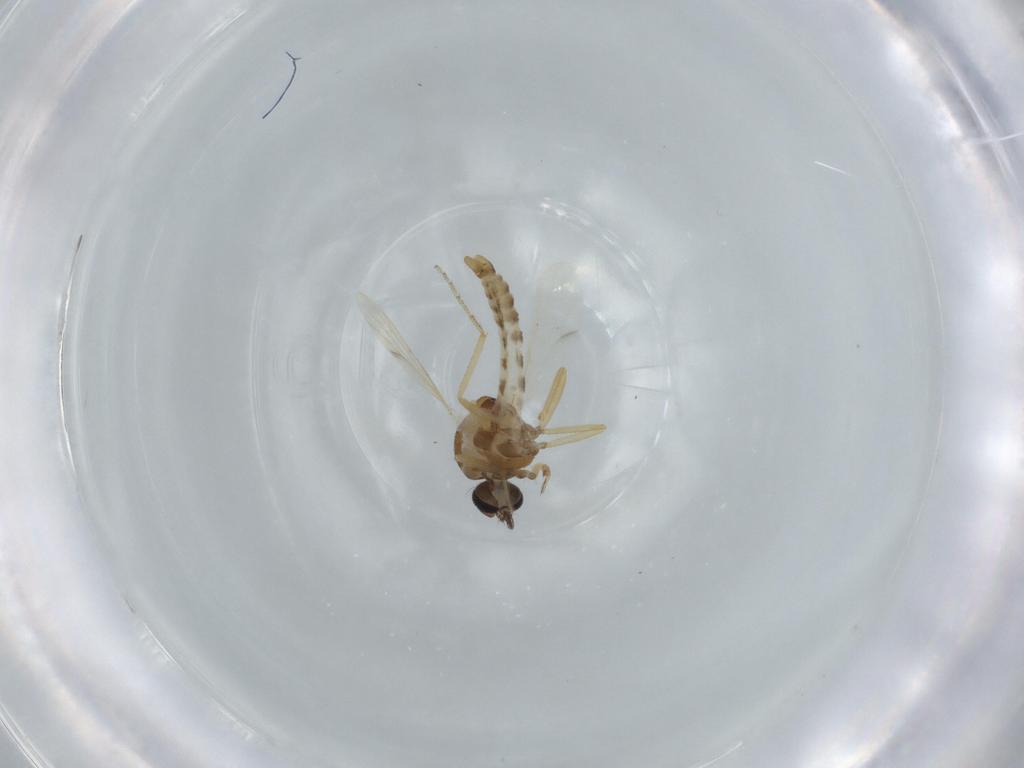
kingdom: Animalia
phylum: Arthropoda
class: Insecta
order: Diptera
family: Ceratopogonidae
